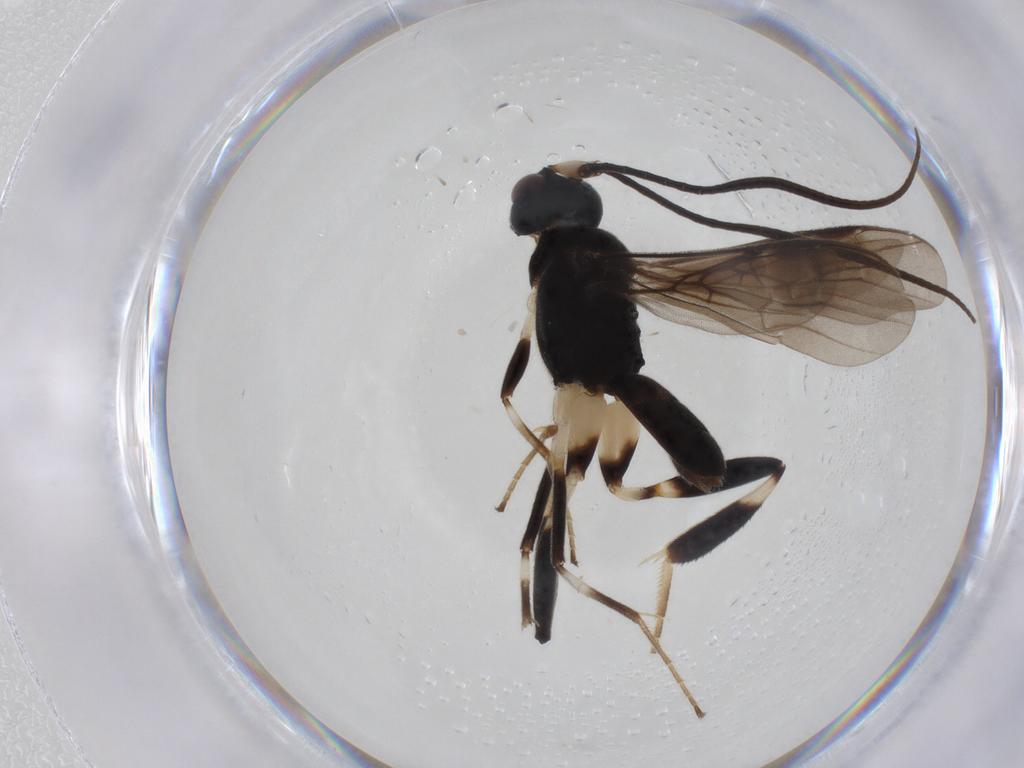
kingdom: Animalia
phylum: Arthropoda
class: Insecta
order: Hymenoptera
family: Braconidae
